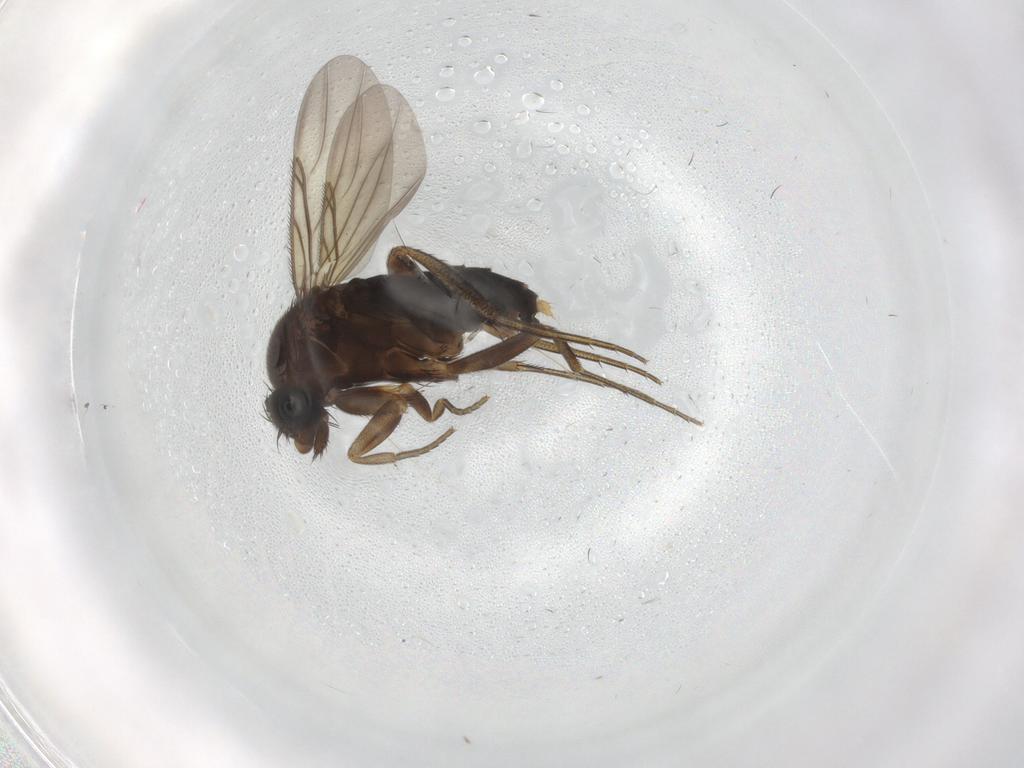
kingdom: Animalia
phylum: Arthropoda
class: Insecta
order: Diptera
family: Phoridae
